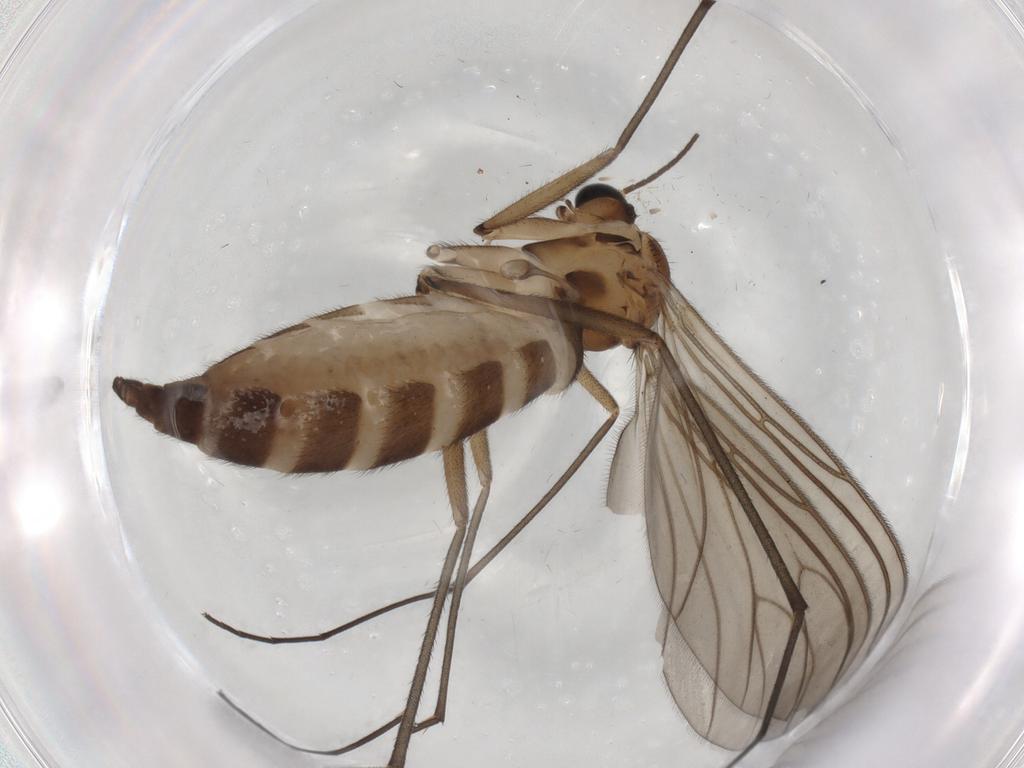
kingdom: Animalia
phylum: Arthropoda
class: Insecta
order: Diptera
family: Sciaridae
